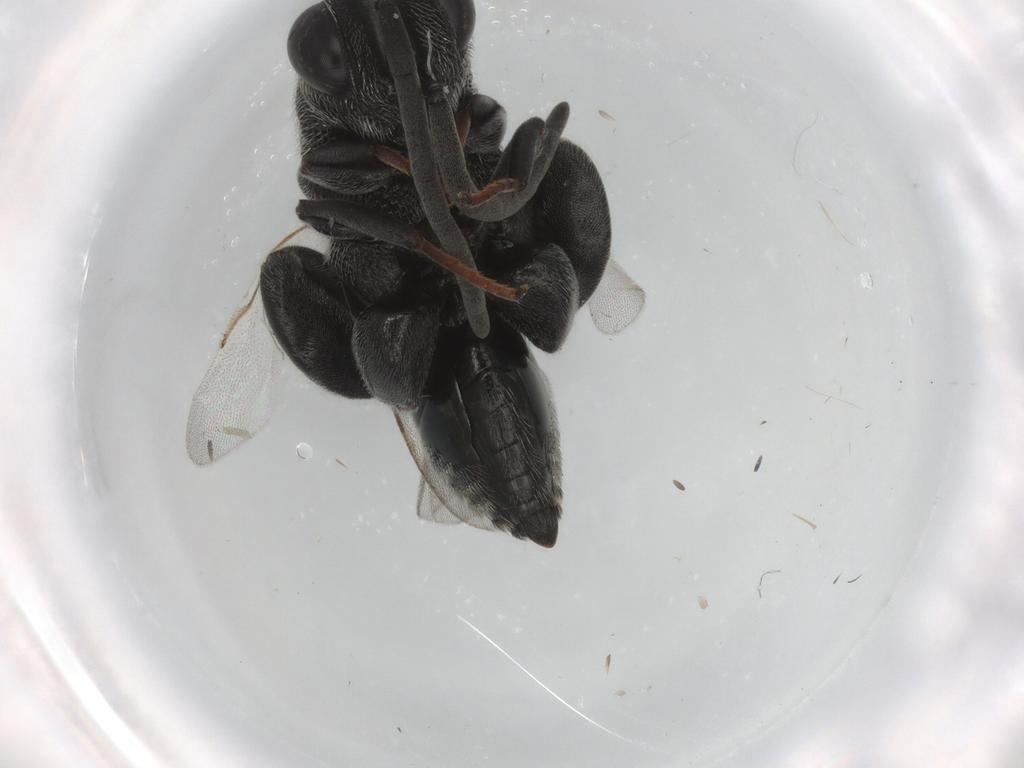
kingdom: Animalia
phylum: Arthropoda
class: Insecta
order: Hymenoptera
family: Chalcididae
